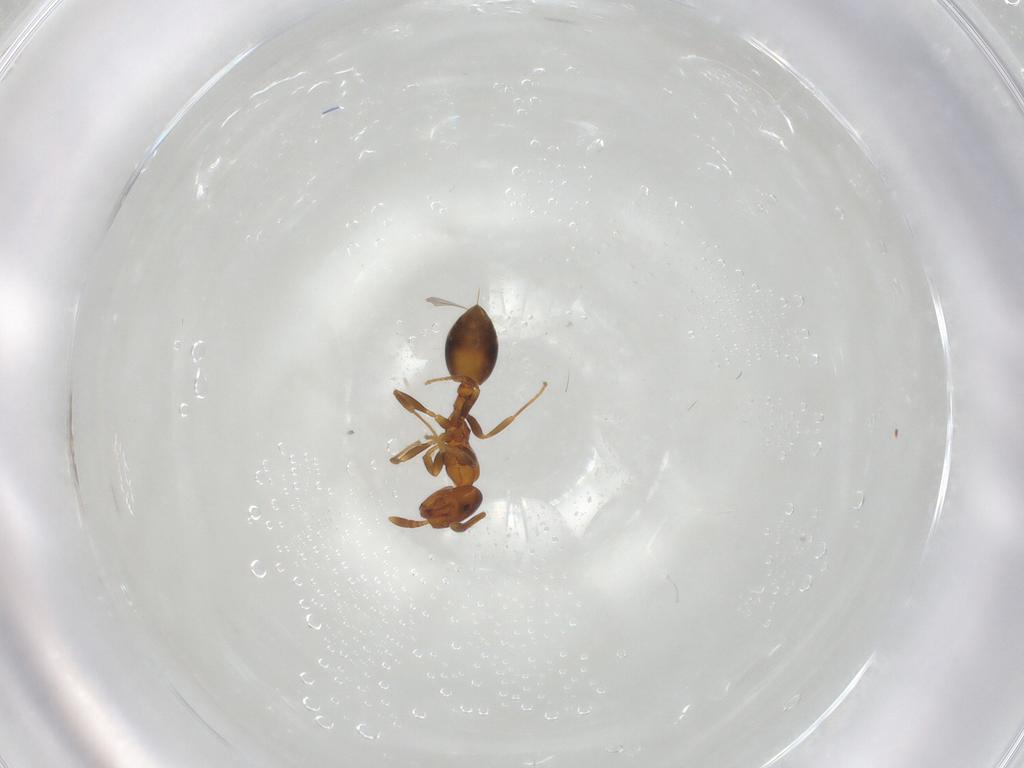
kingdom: Animalia
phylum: Arthropoda
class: Insecta
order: Hymenoptera
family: Formicidae
